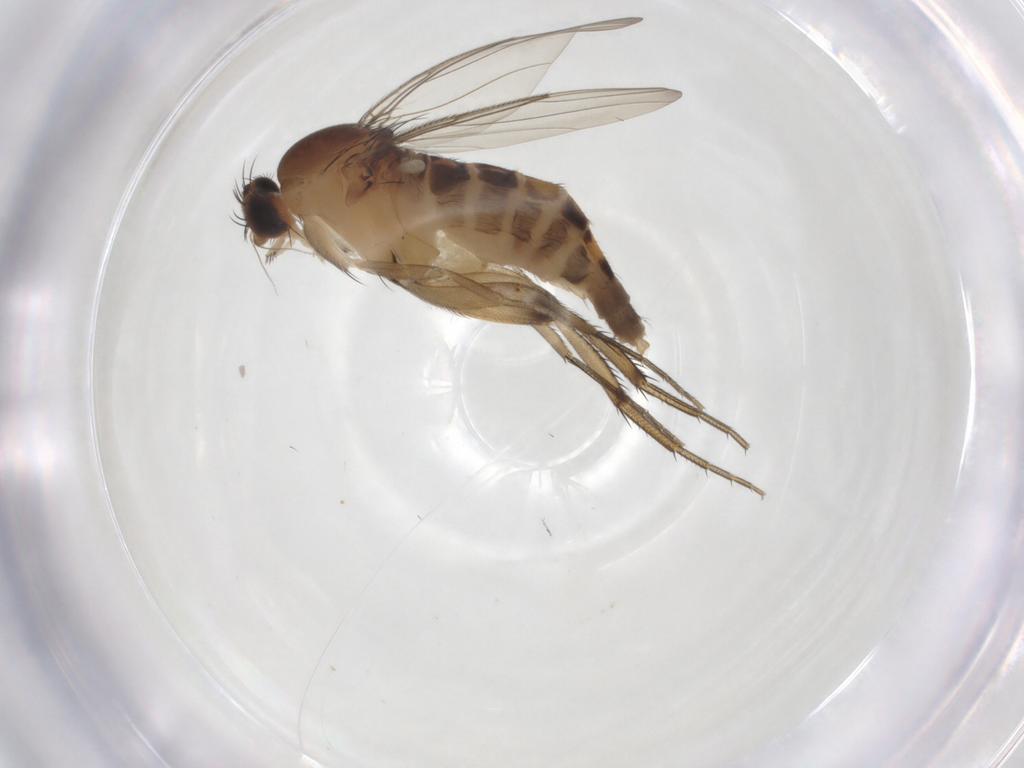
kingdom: Animalia
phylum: Arthropoda
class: Insecta
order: Diptera
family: Phoridae
